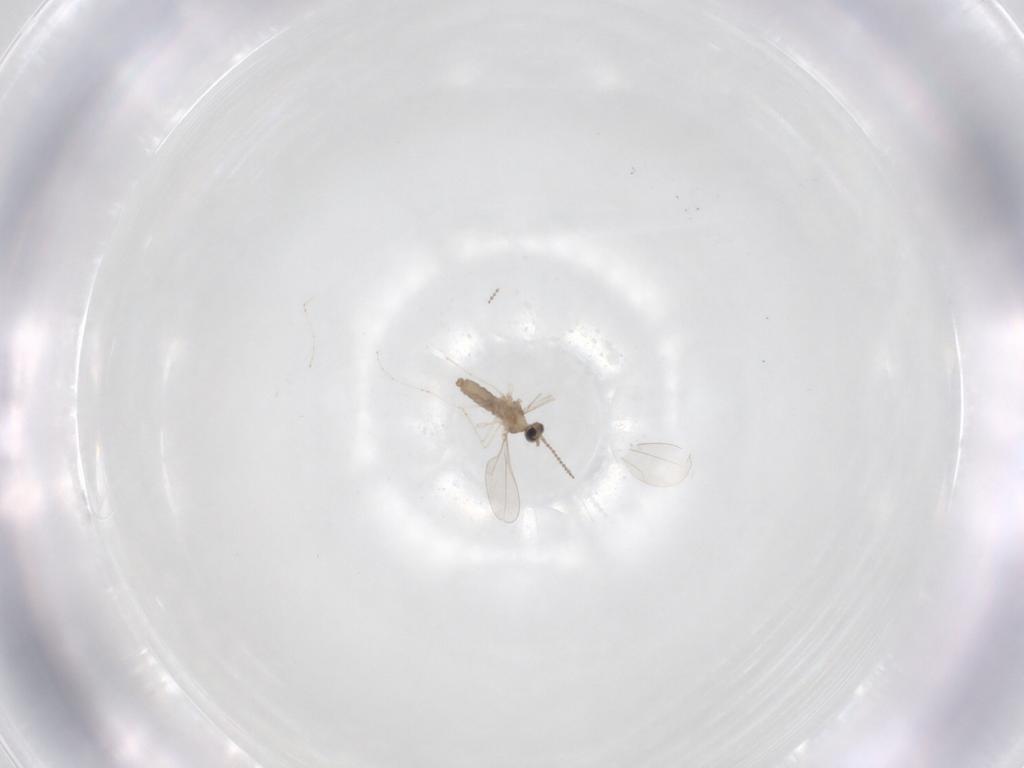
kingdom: Animalia
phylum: Arthropoda
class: Insecta
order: Diptera
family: Cecidomyiidae
